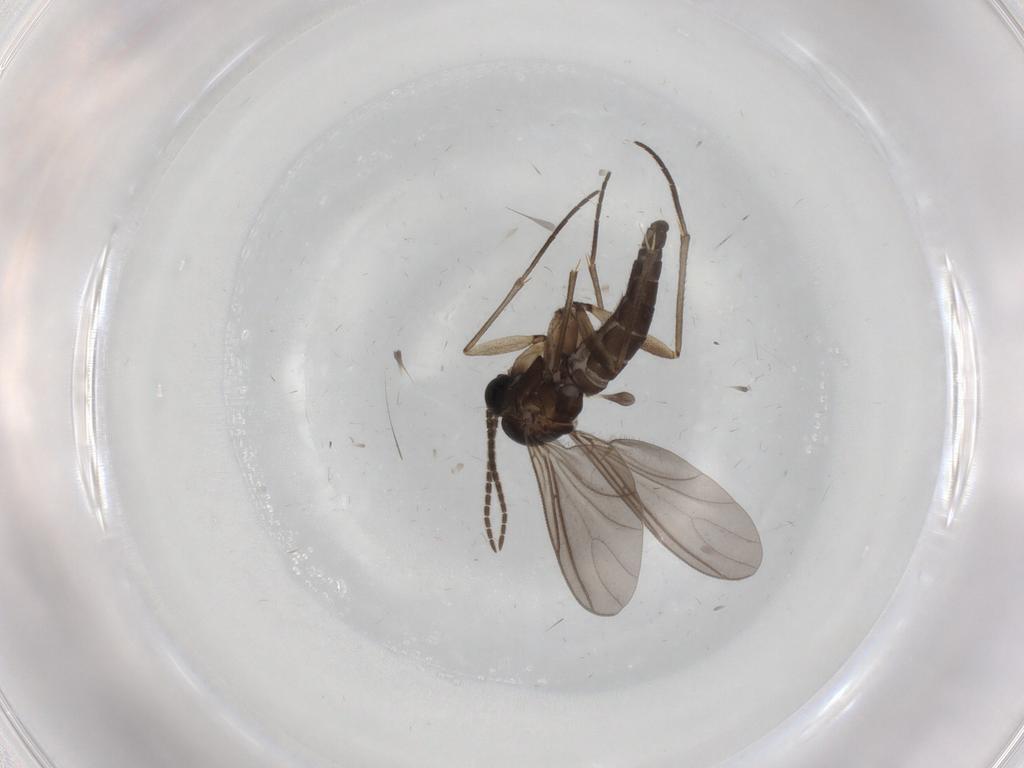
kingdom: Animalia
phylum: Arthropoda
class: Insecta
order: Diptera
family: Sciaridae
